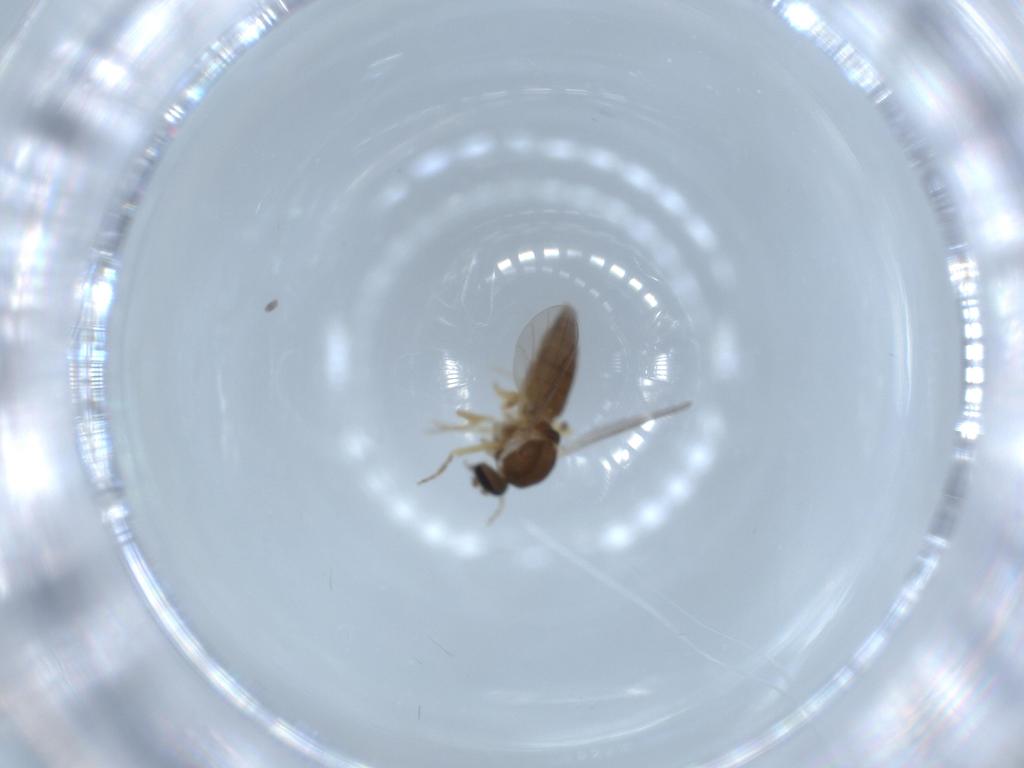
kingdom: Animalia
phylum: Arthropoda
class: Insecta
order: Diptera
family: Ceratopogonidae
